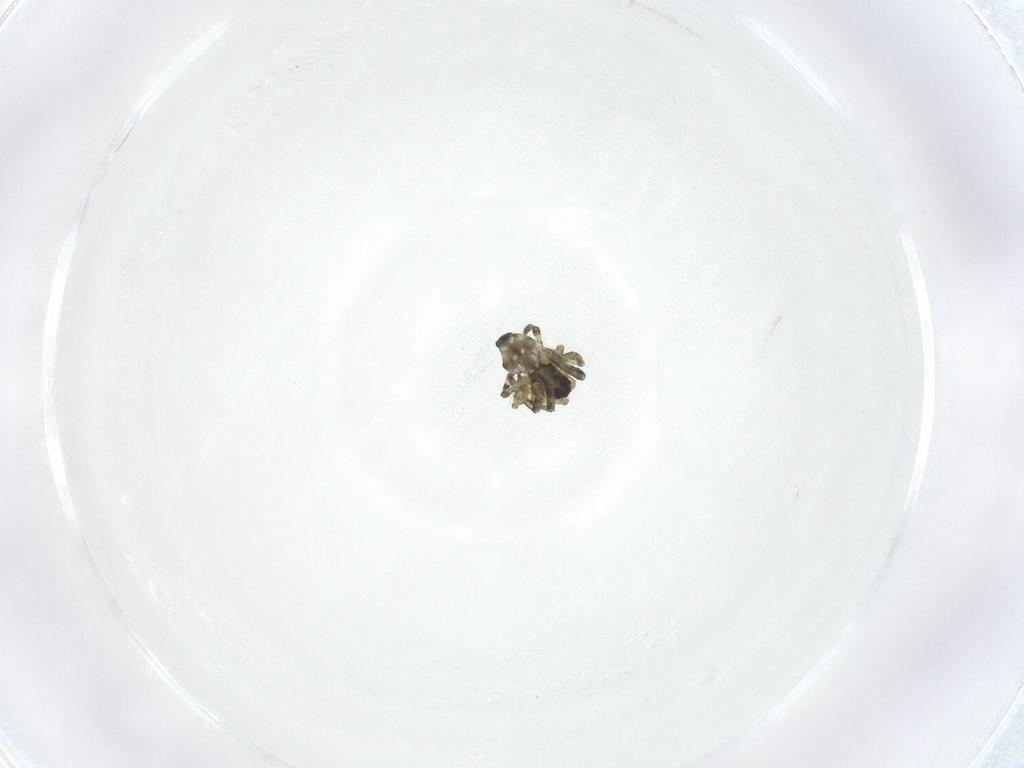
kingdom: Animalia
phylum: Arthropoda
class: Arachnida
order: Araneae
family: Tetragnathidae
